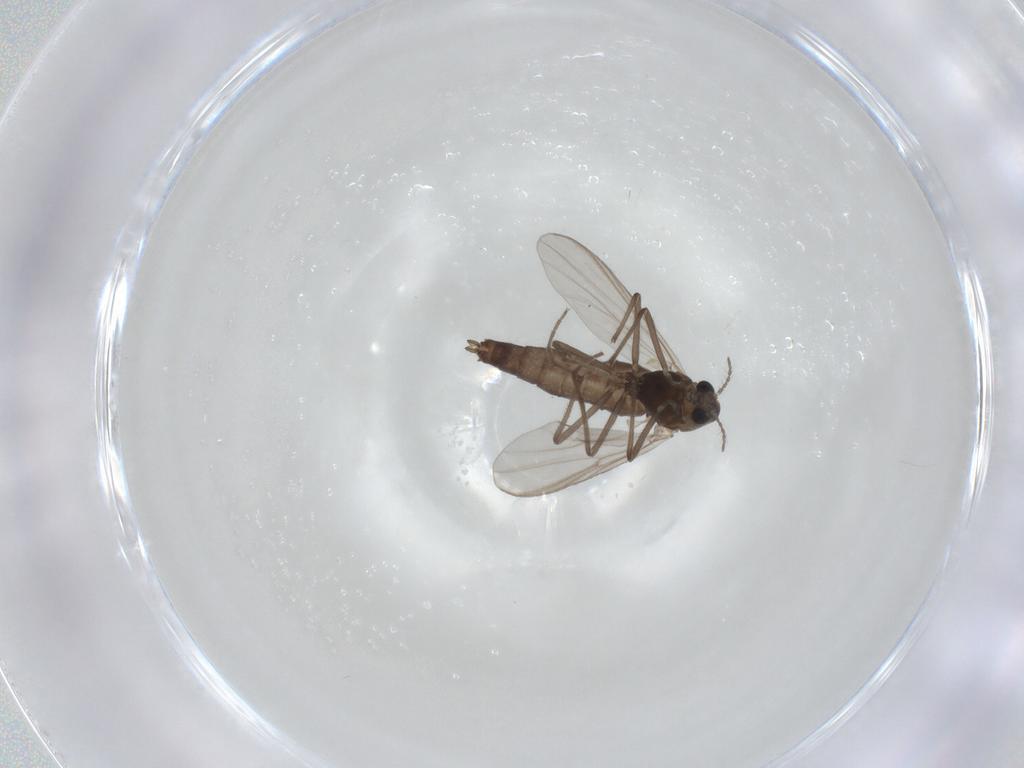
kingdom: Animalia
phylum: Arthropoda
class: Insecta
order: Diptera
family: Chironomidae
